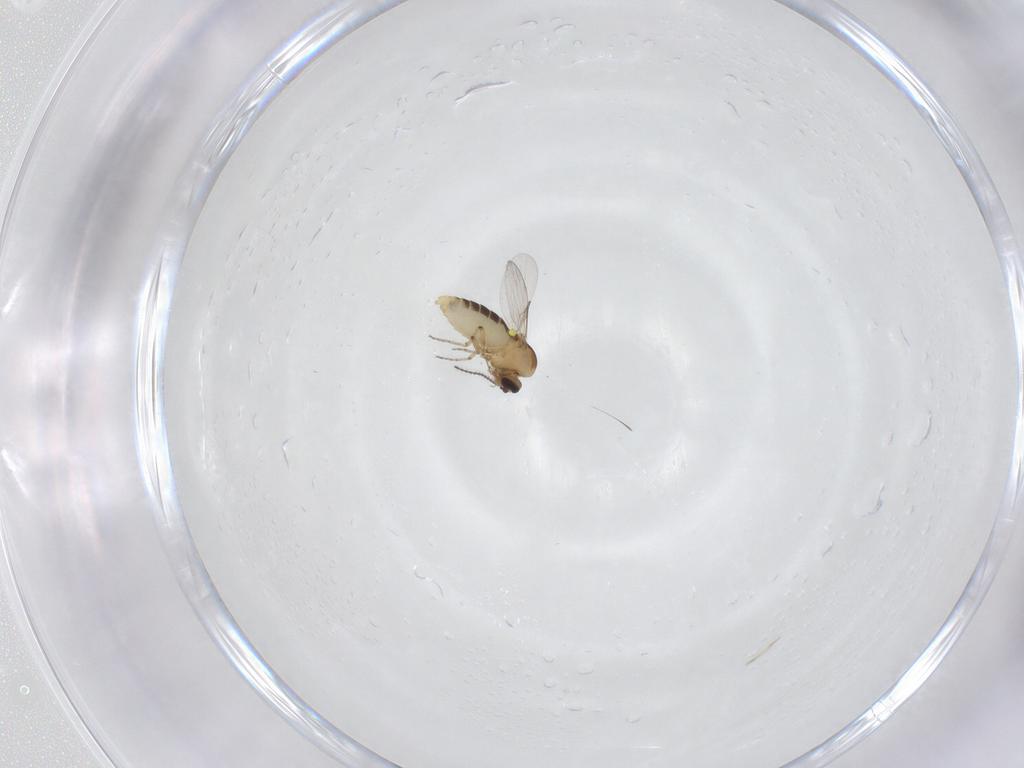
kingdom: Animalia
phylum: Arthropoda
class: Insecta
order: Diptera
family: Ceratopogonidae
